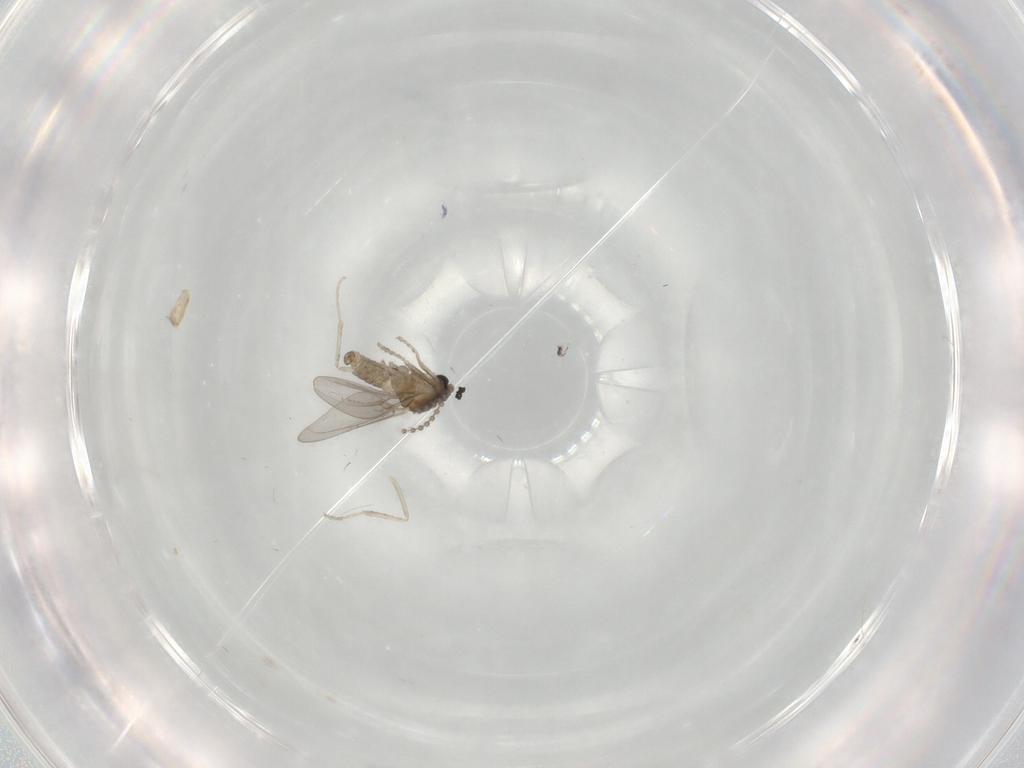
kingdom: Animalia
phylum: Arthropoda
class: Insecta
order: Diptera
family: Cecidomyiidae
